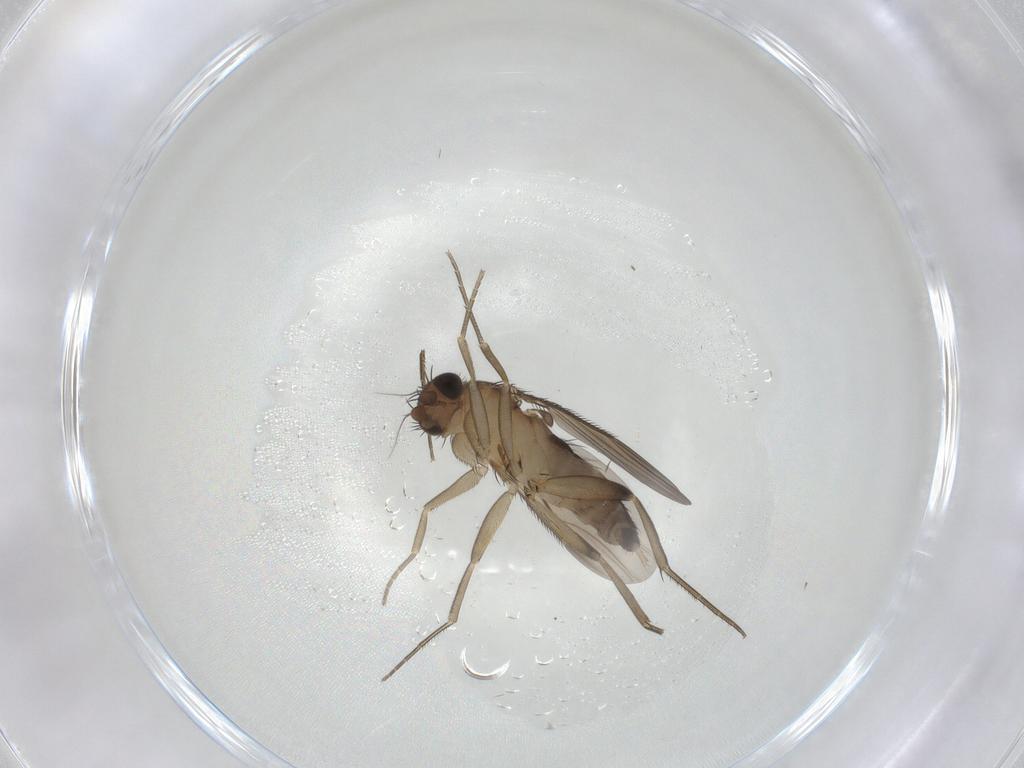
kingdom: Animalia
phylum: Arthropoda
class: Insecta
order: Diptera
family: Phoridae
